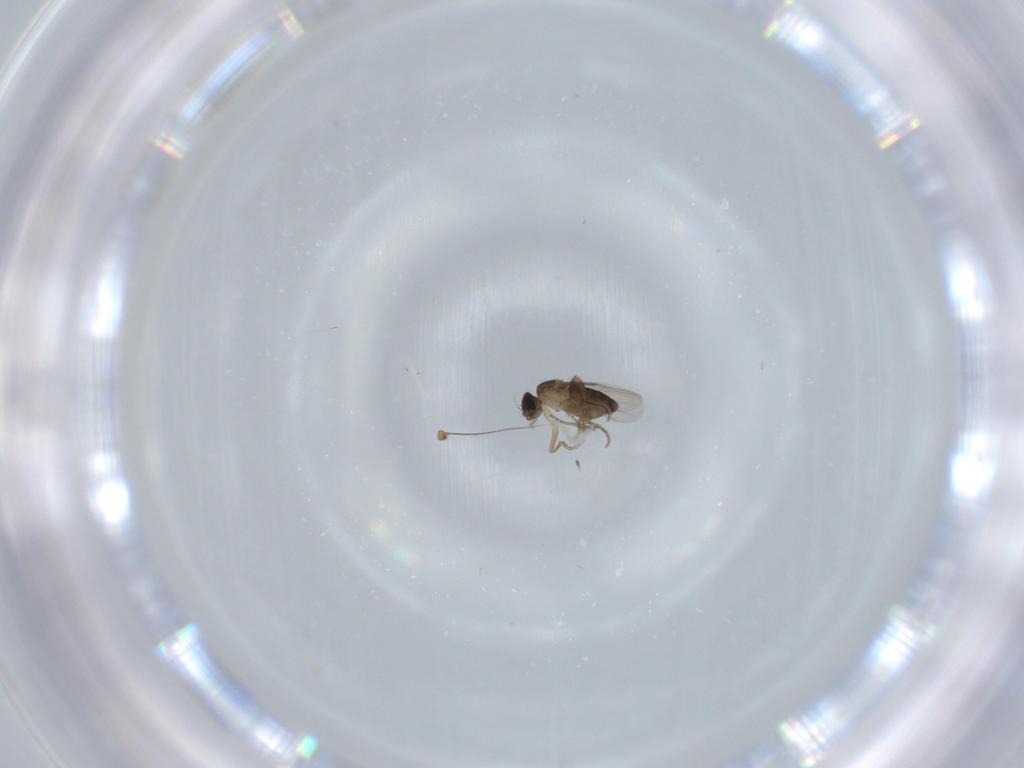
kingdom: Animalia
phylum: Arthropoda
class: Insecta
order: Diptera
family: Phoridae
